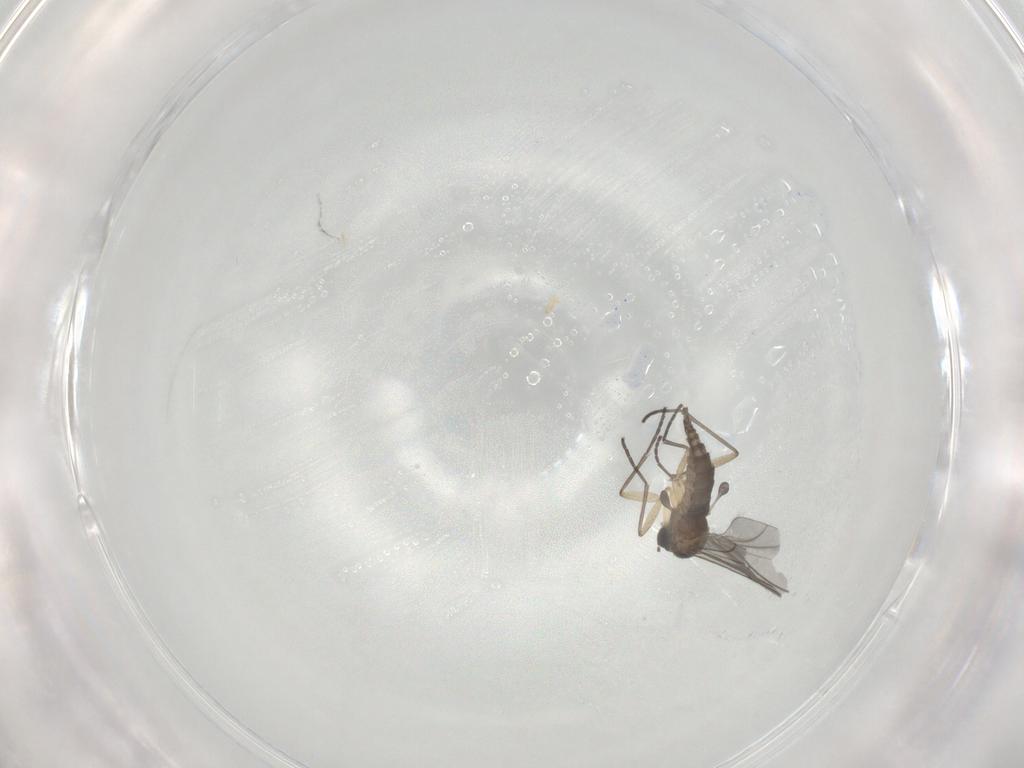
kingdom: Animalia
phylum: Arthropoda
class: Insecta
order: Diptera
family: Sciaridae
